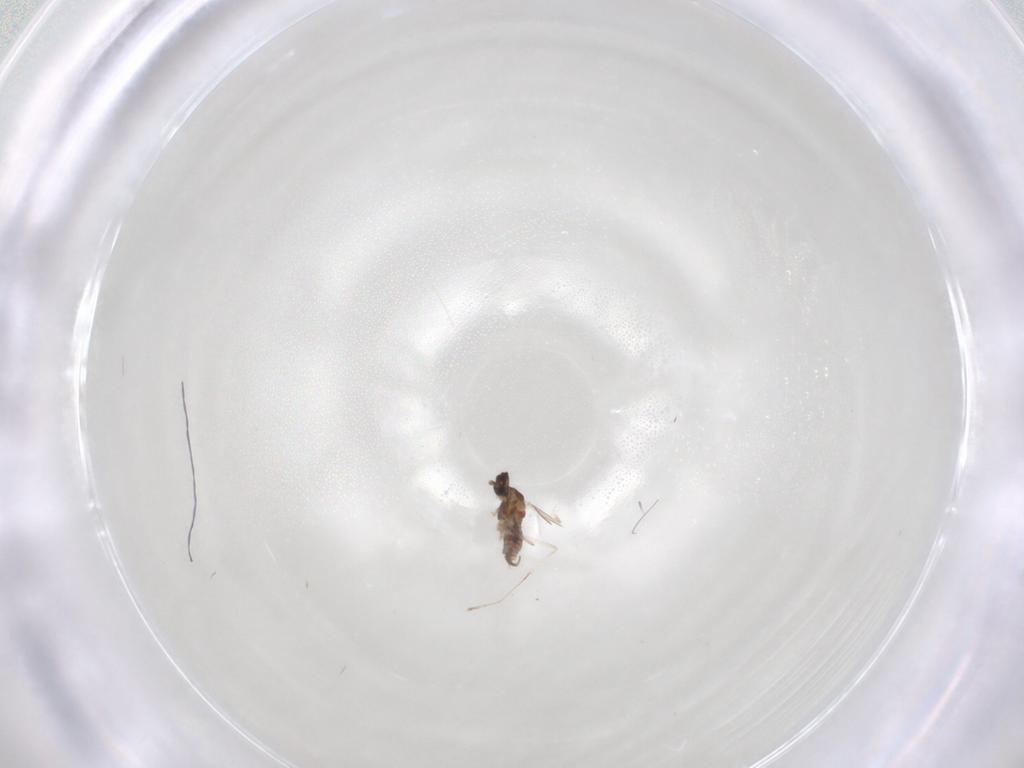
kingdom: Animalia
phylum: Arthropoda
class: Insecta
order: Diptera
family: Cecidomyiidae
